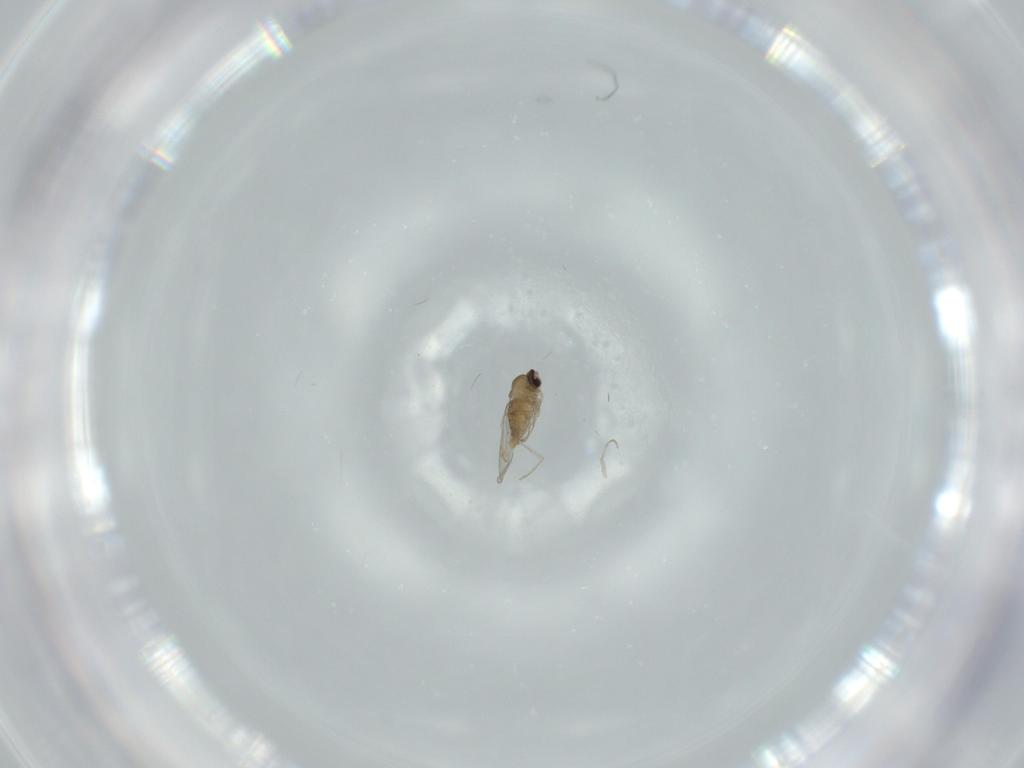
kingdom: Animalia
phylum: Arthropoda
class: Insecta
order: Diptera
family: Cecidomyiidae
